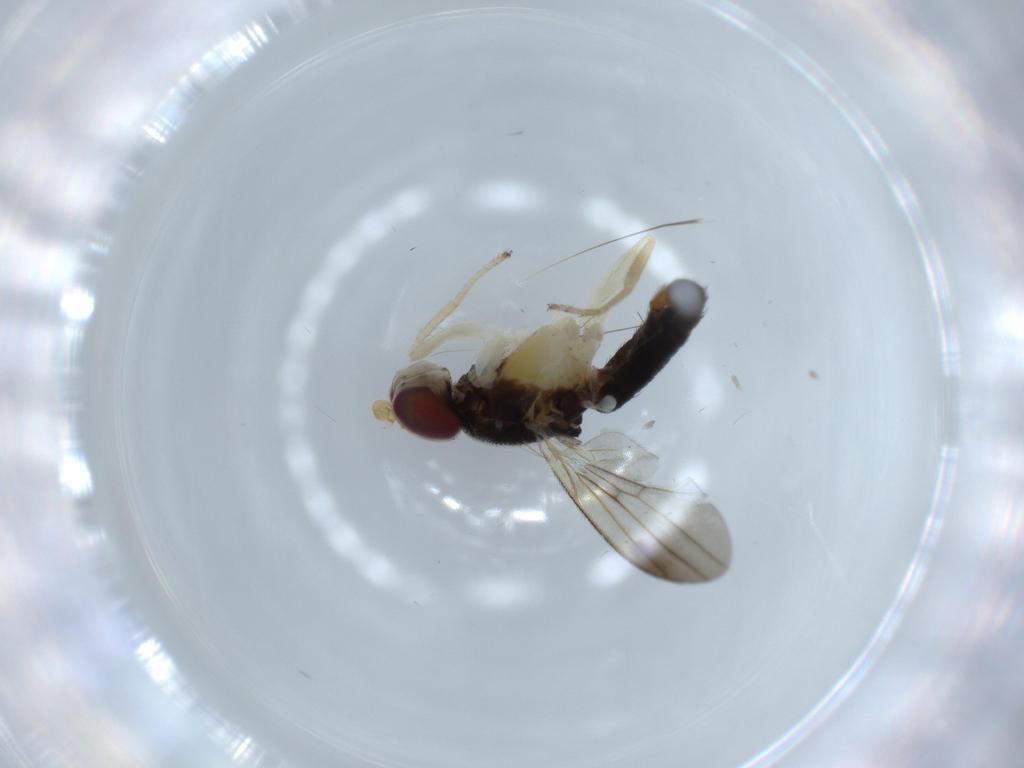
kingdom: Animalia
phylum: Arthropoda
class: Insecta
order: Diptera
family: Clusiidae
